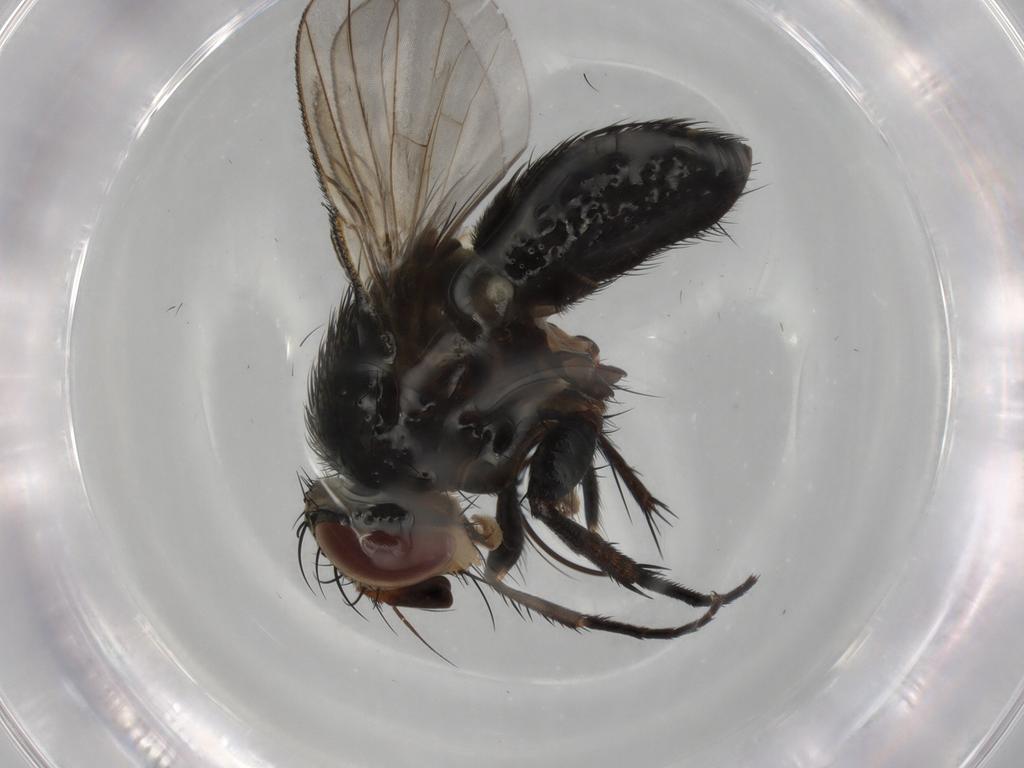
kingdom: Animalia
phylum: Arthropoda
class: Insecta
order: Diptera
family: Tachinidae
